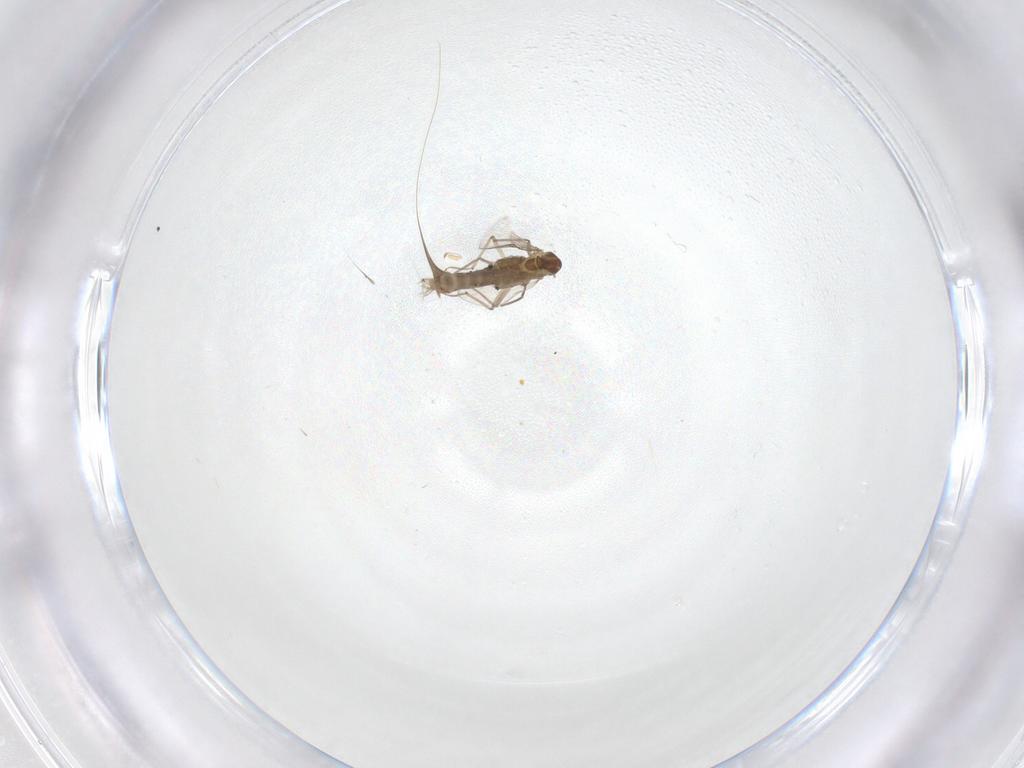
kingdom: Animalia
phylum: Arthropoda
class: Insecta
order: Diptera
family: Chironomidae
